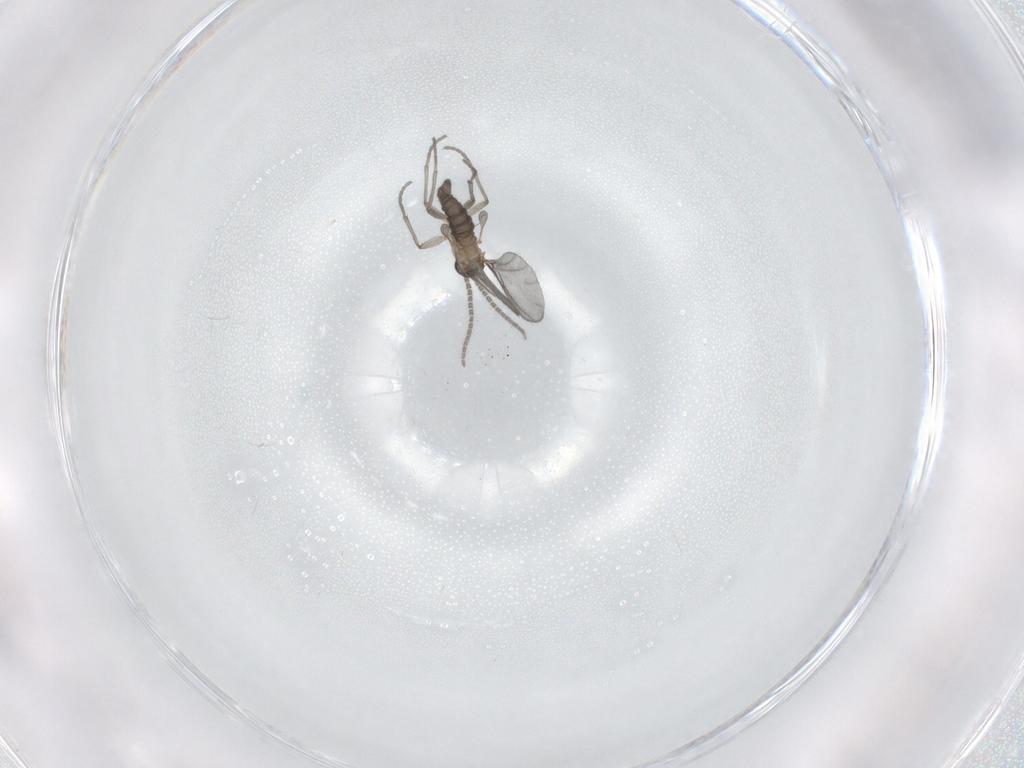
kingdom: Animalia
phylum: Arthropoda
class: Insecta
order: Diptera
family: Sciaridae
